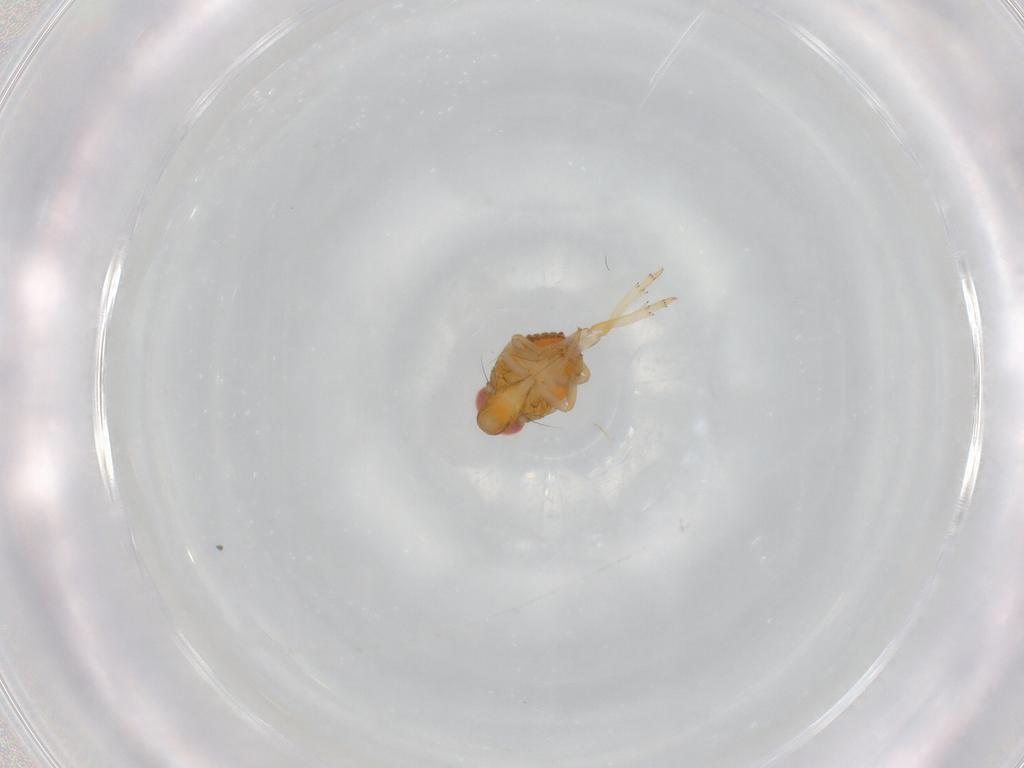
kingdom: Animalia
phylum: Arthropoda
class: Insecta
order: Hemiptera
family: Issidae
